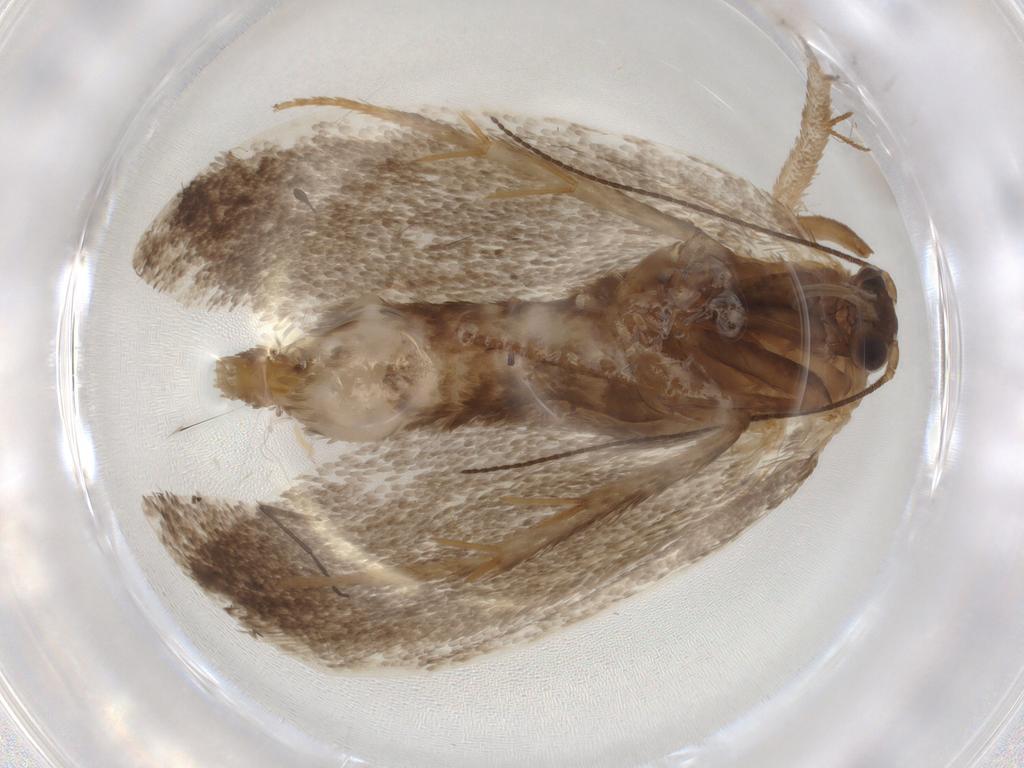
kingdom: Animalia
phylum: Arthropoda
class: Insecta
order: Lepidoptera
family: Eriocottidae
